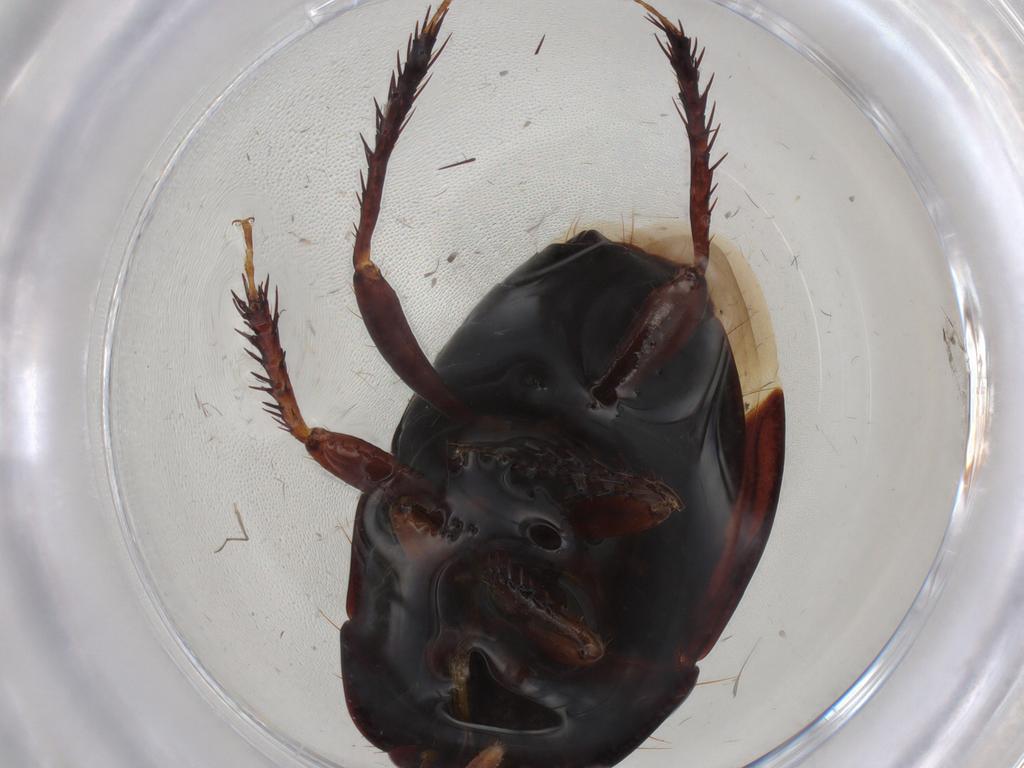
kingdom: Animalia
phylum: Arthropoda
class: Insecta
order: Hemiptera
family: Cydnidae
